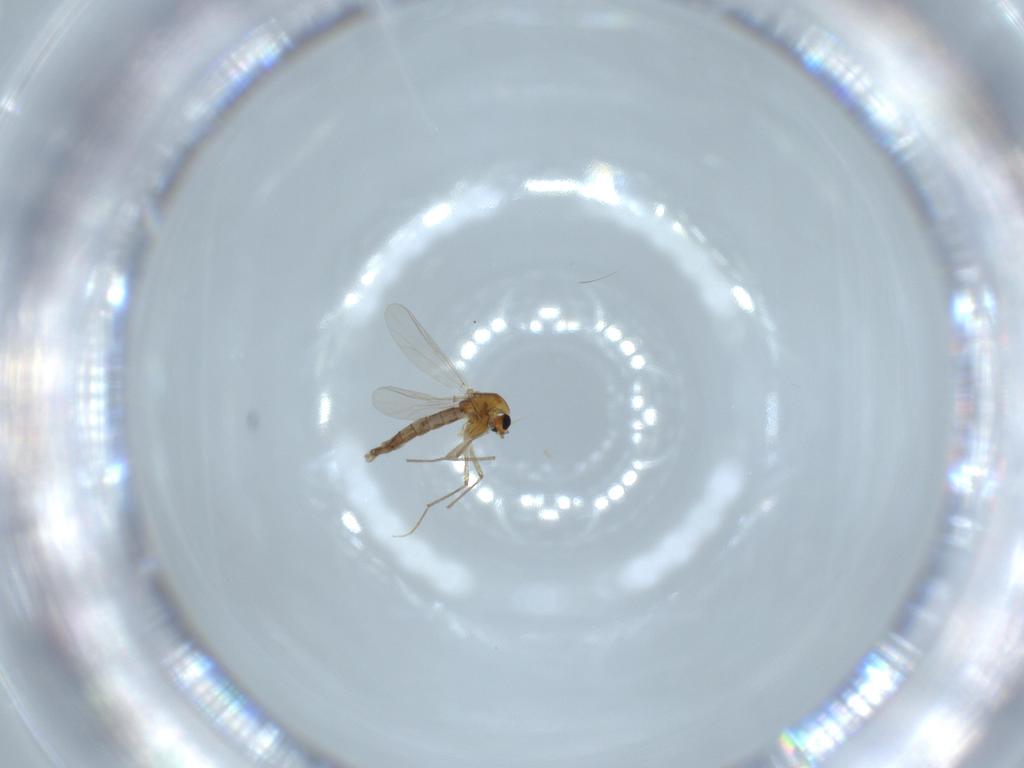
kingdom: Animalia
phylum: Arthropoda
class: Insecta
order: Diptera
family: Chironomidae
